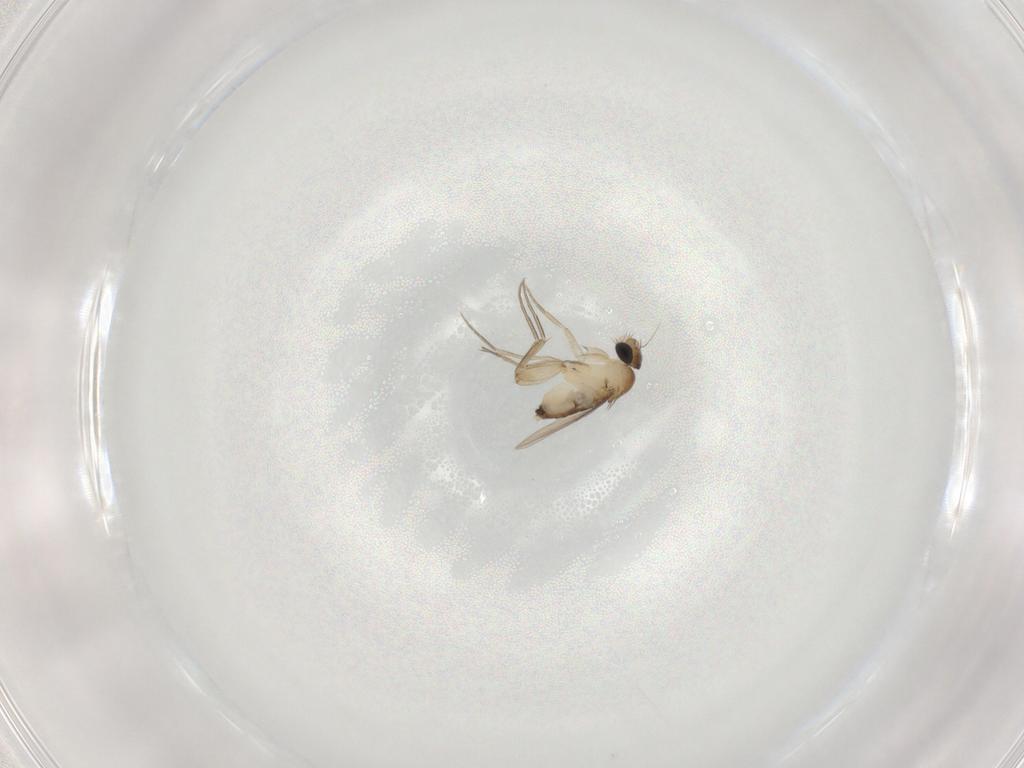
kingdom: Animalia
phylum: Arthropoda
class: Insecta
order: Diptera
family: Phoridae
